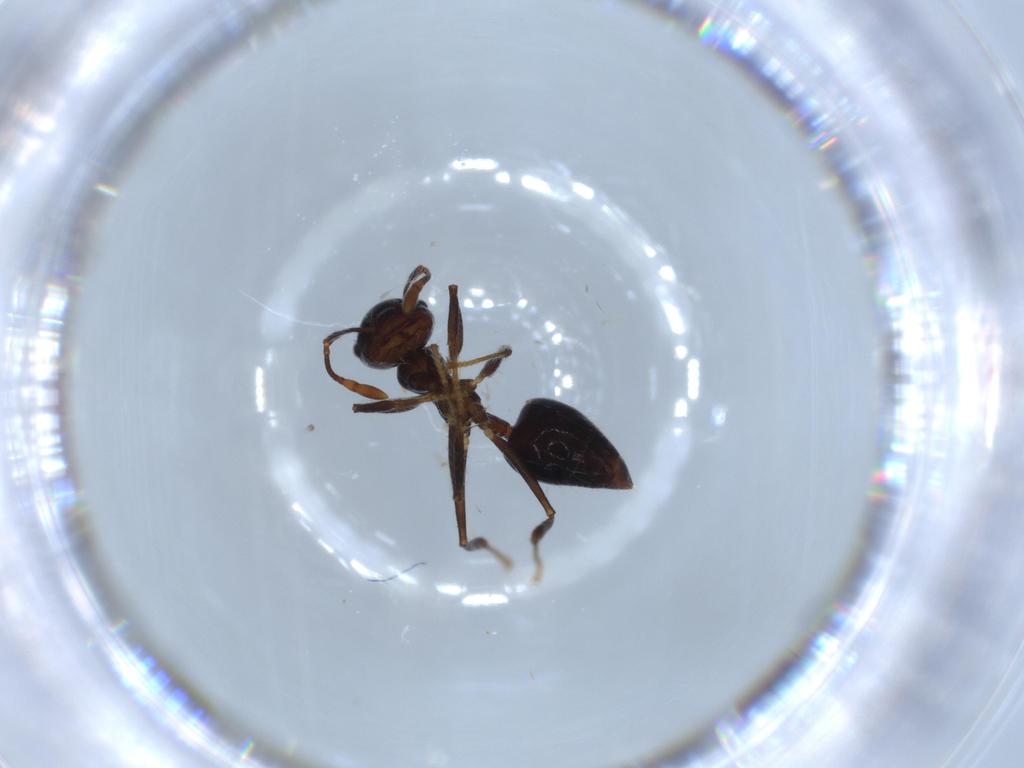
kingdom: Animalia
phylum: Arthropoda
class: Insecta
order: Hymenoptera
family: Formicidae
